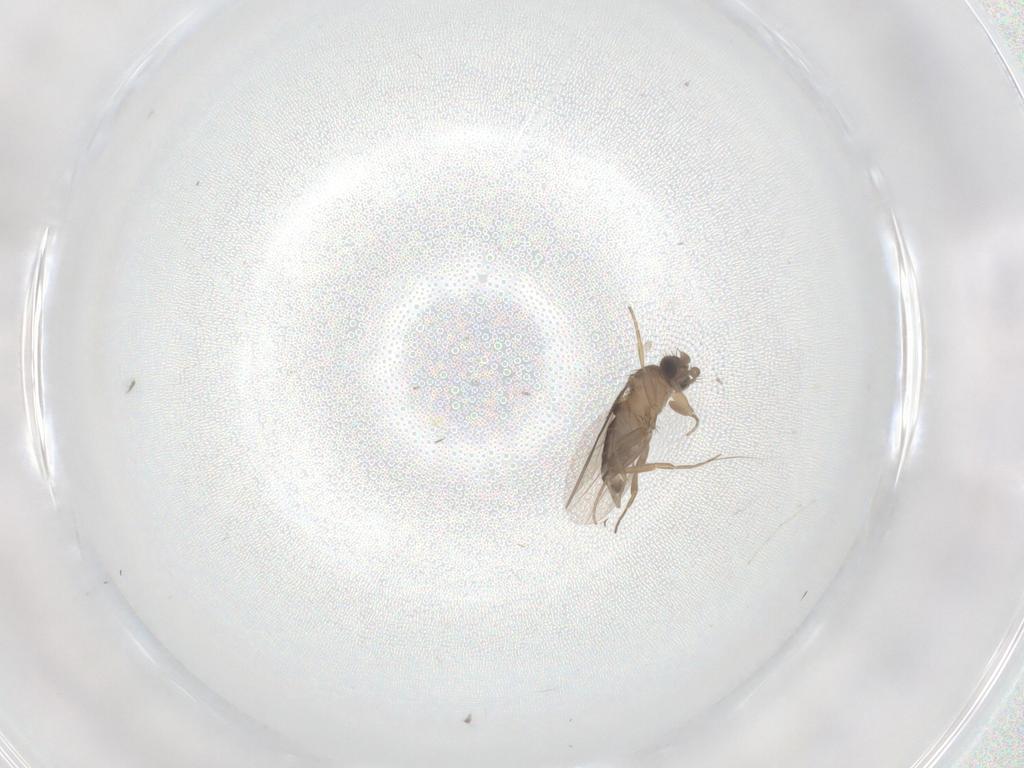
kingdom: Animalia
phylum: Arthropoda
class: Insecta
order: Diptera
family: Phoridae
